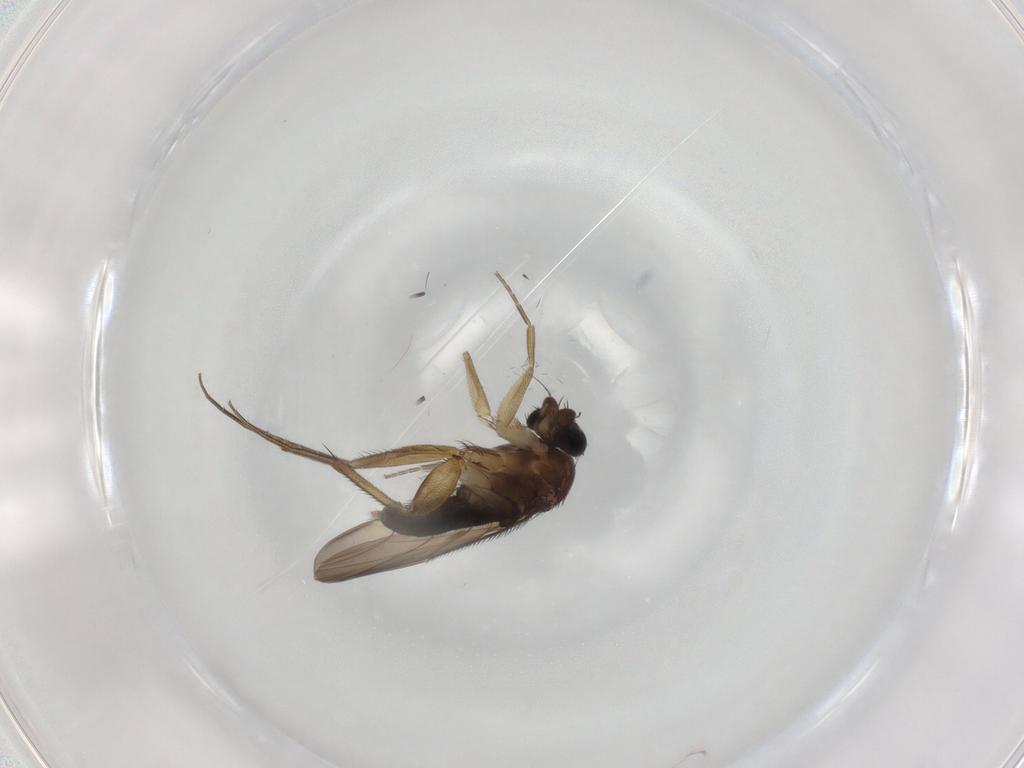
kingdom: Animalia
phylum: Arthropoda
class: Insecta
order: Diptera
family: Phoridae
